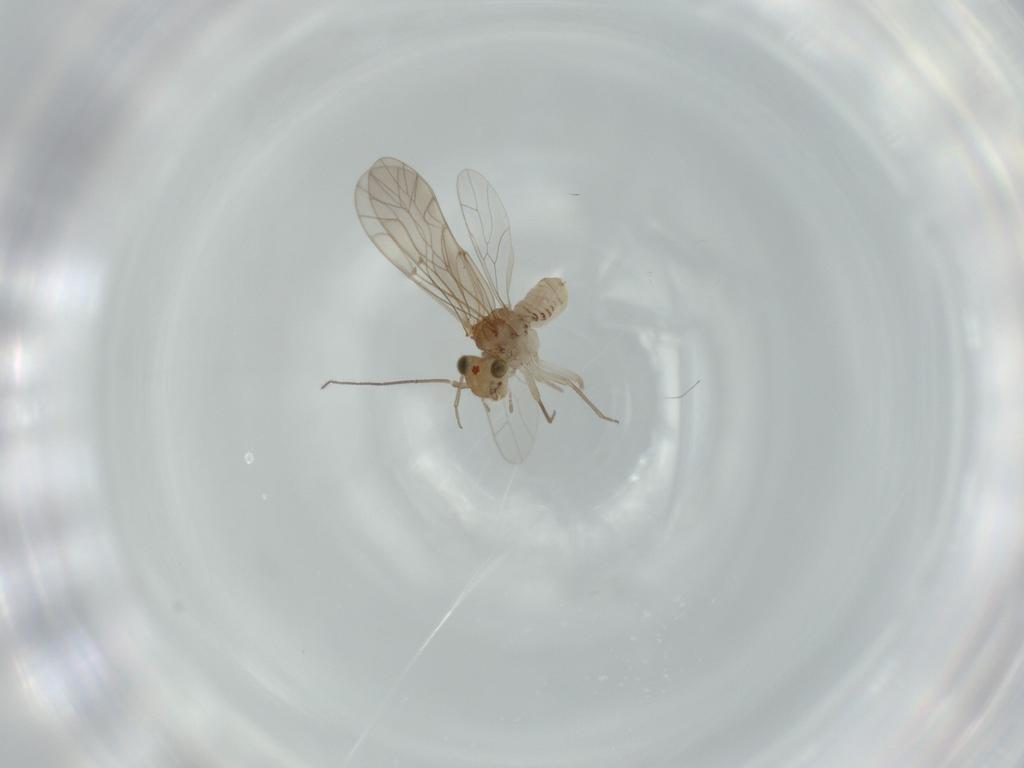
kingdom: Animalia
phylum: Arthropoda
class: Insecta
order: Psocodea
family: Lachesillidae
